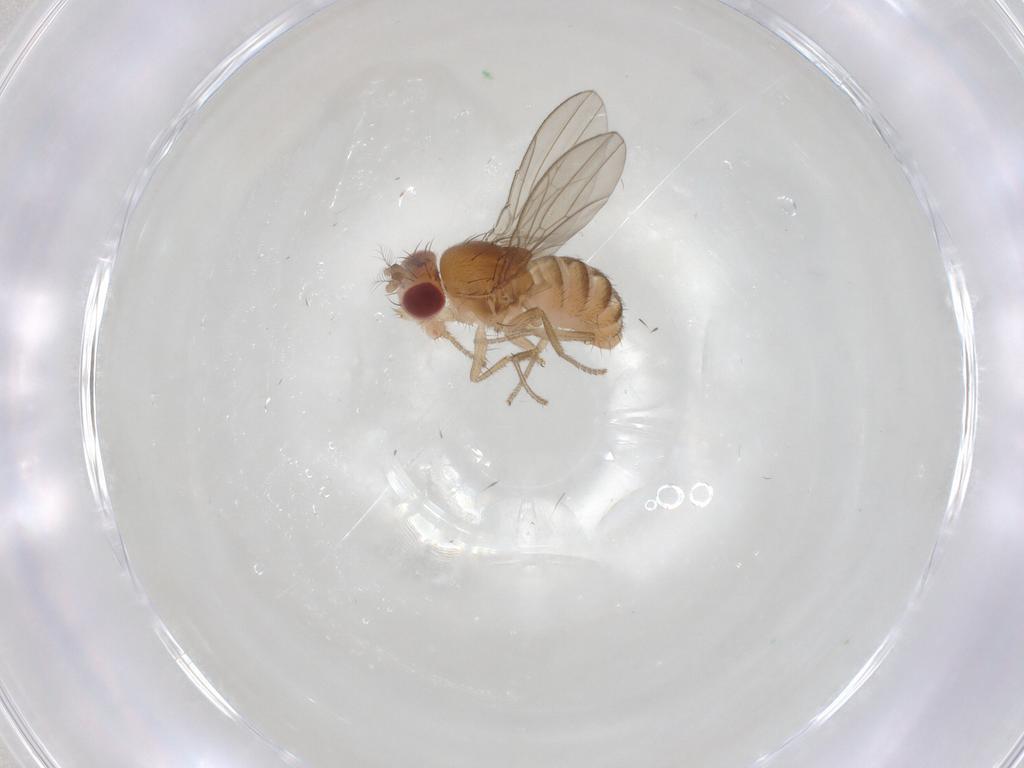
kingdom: Animalia
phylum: Arthropoda
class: Insecta
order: Diptera
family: Drosophilidae
